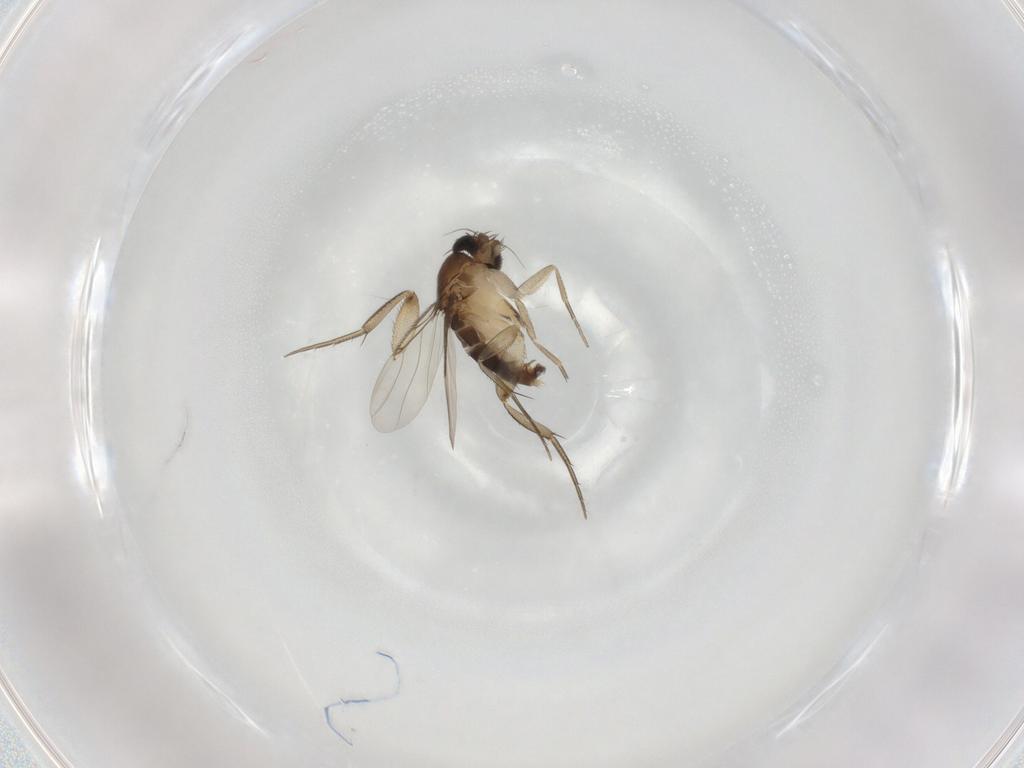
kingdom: Animalia
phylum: Arthropoda
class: Insecta
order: Diptera
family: Phoridae
